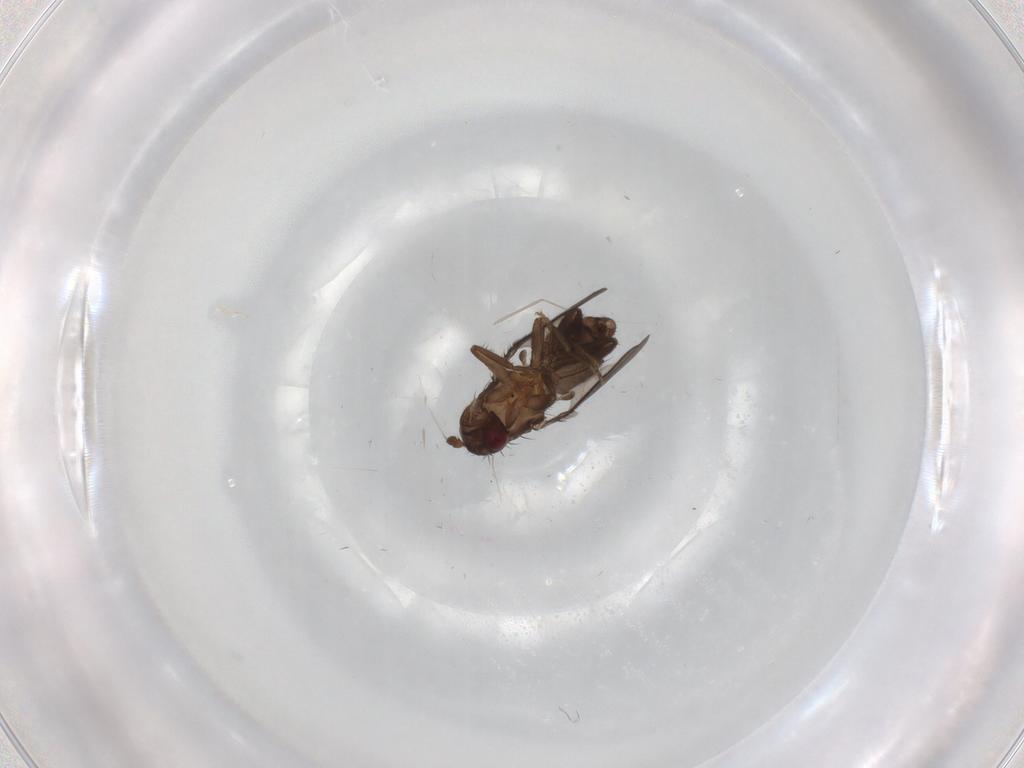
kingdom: Animalia
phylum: Arthropoda
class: Insecta
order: Diptera
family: Sphaeroceridae
